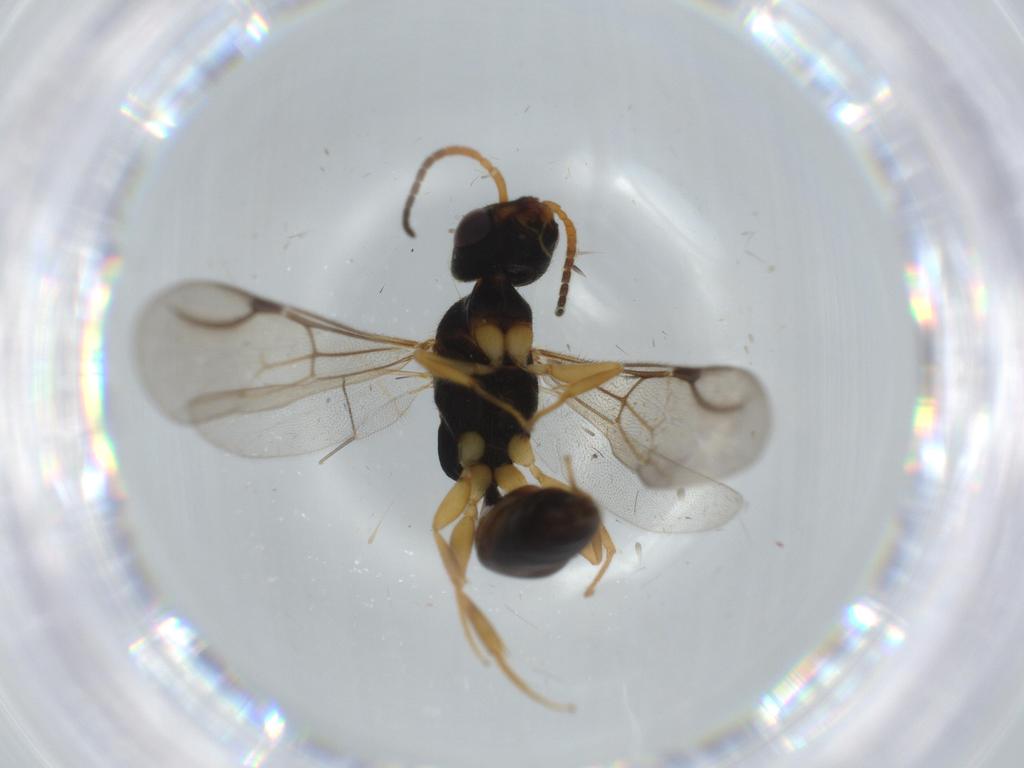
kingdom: Animalia
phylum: Arthropoda
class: Insecta
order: Hymenoptera
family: Scelionidae
